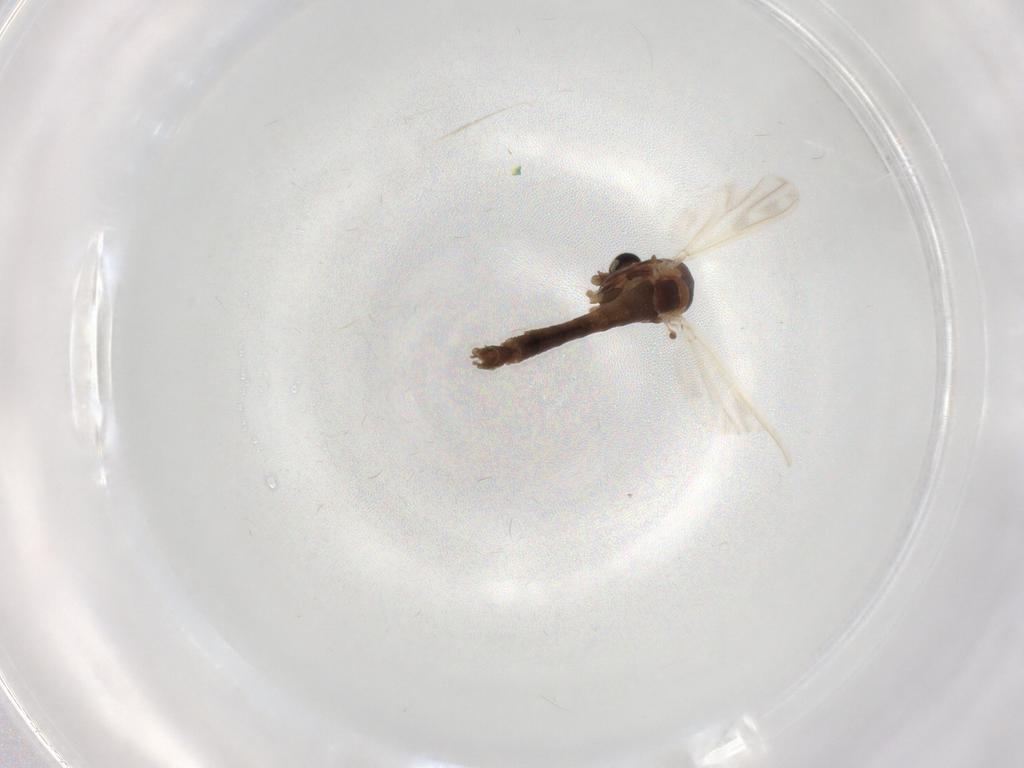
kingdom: Animalia
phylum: Arthropoda
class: Insecta
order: Diptera
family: Chironomidae
